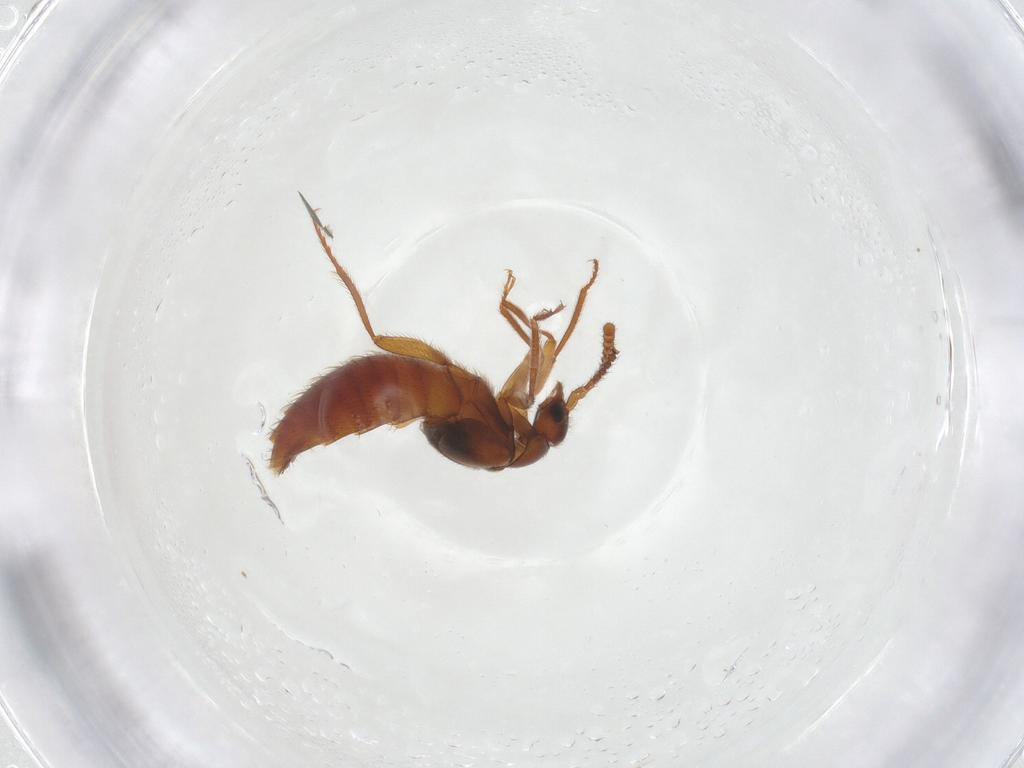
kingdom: Animalia
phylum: Arthropoda
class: Insecta
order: Coleoptera
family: Staphylinidae
